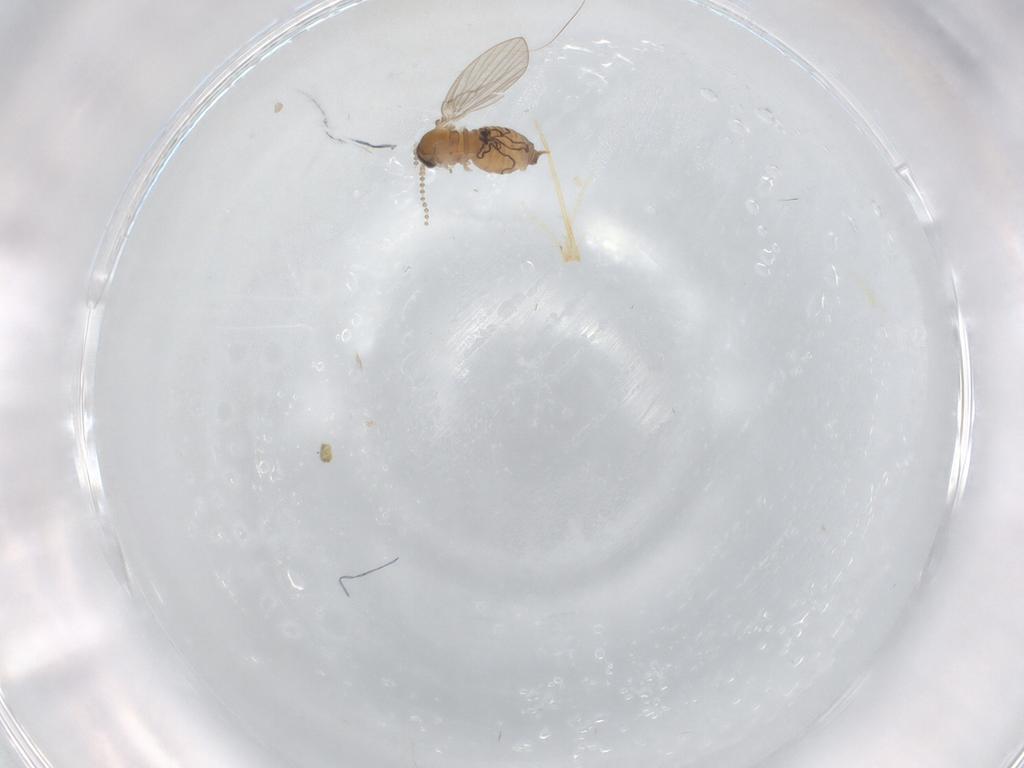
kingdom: Animalia
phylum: Arthropoda
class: Insecta
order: Diptera
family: Psychodidae
